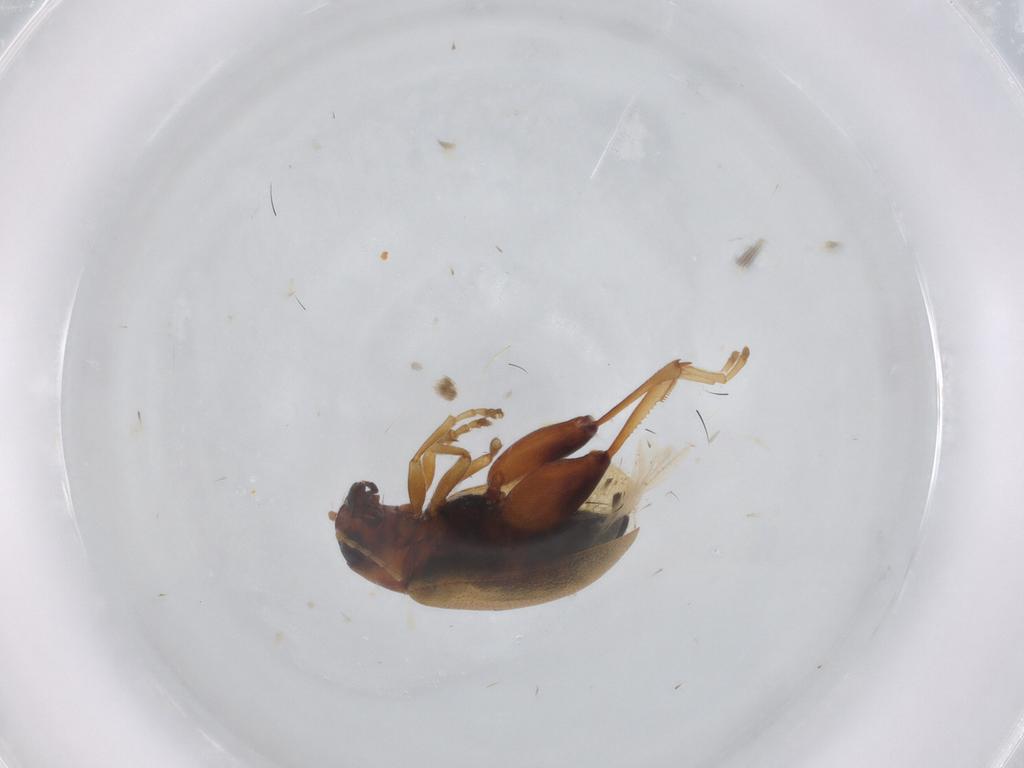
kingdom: Animalia
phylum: Arthropoda
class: Insecta
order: Coleoptera
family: Chrysomelidae
